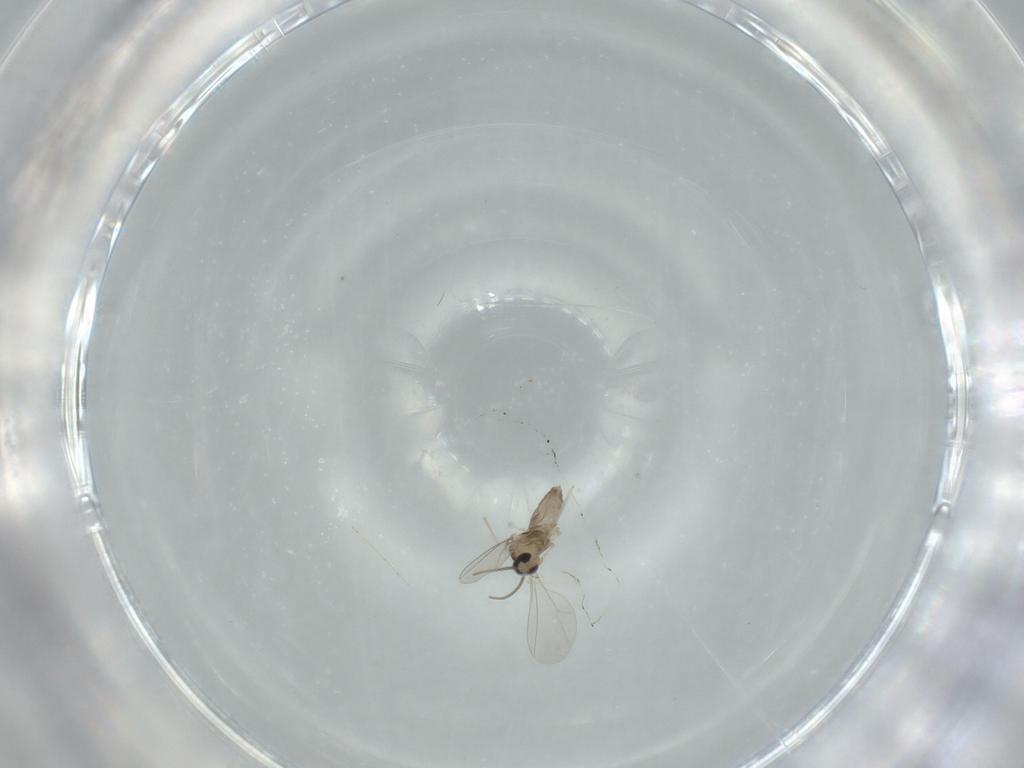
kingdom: Animalia
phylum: Arthropoda
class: Insecta
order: Diptera
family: Cecidomyiidae
